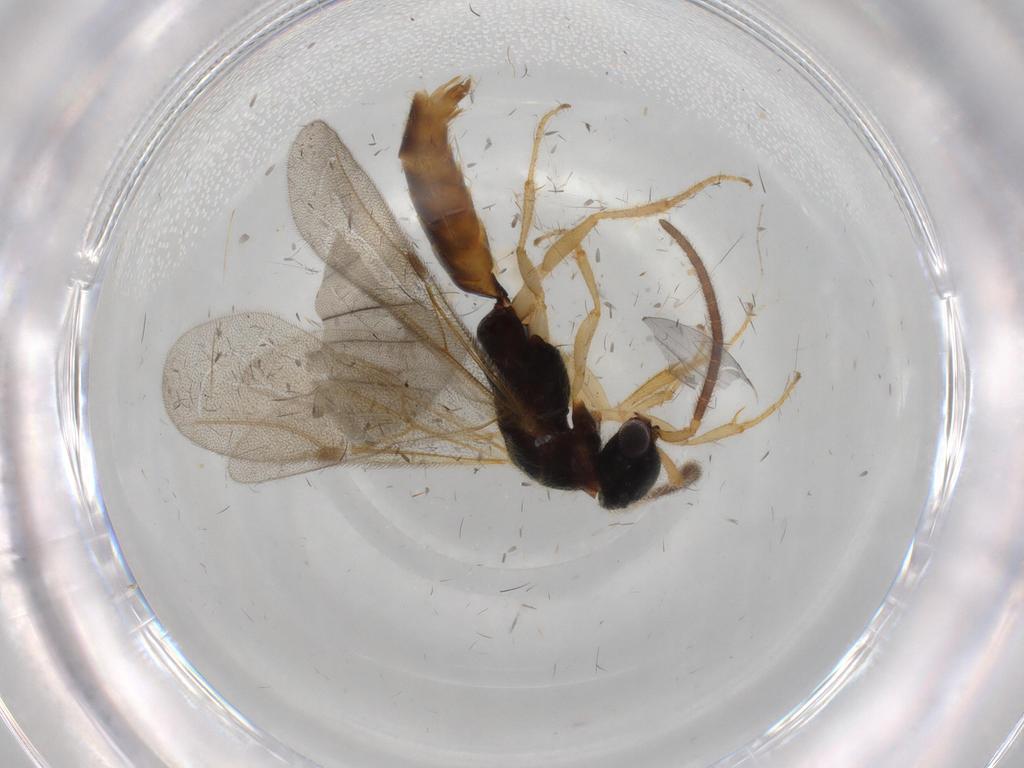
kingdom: Animalia
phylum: Arthropoda
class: Insecta
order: Hymenoptera
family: Bethylidae
